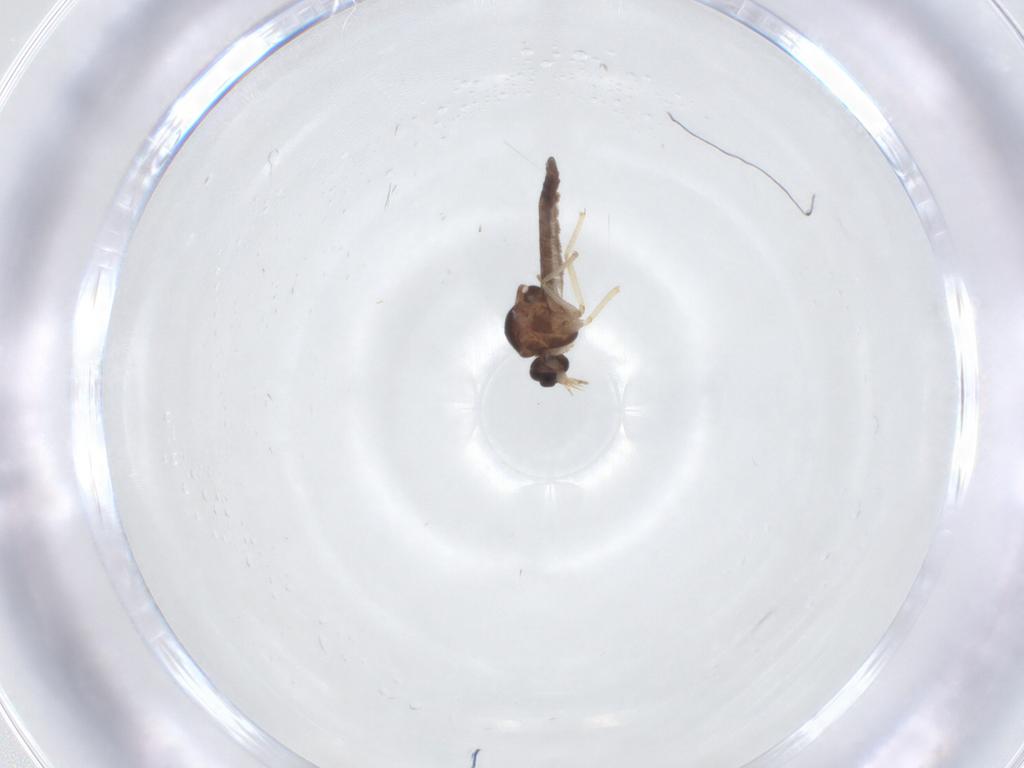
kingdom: Animalia
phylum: Arthropoda
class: Insecta
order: Diptera
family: Ceratopogonidae
